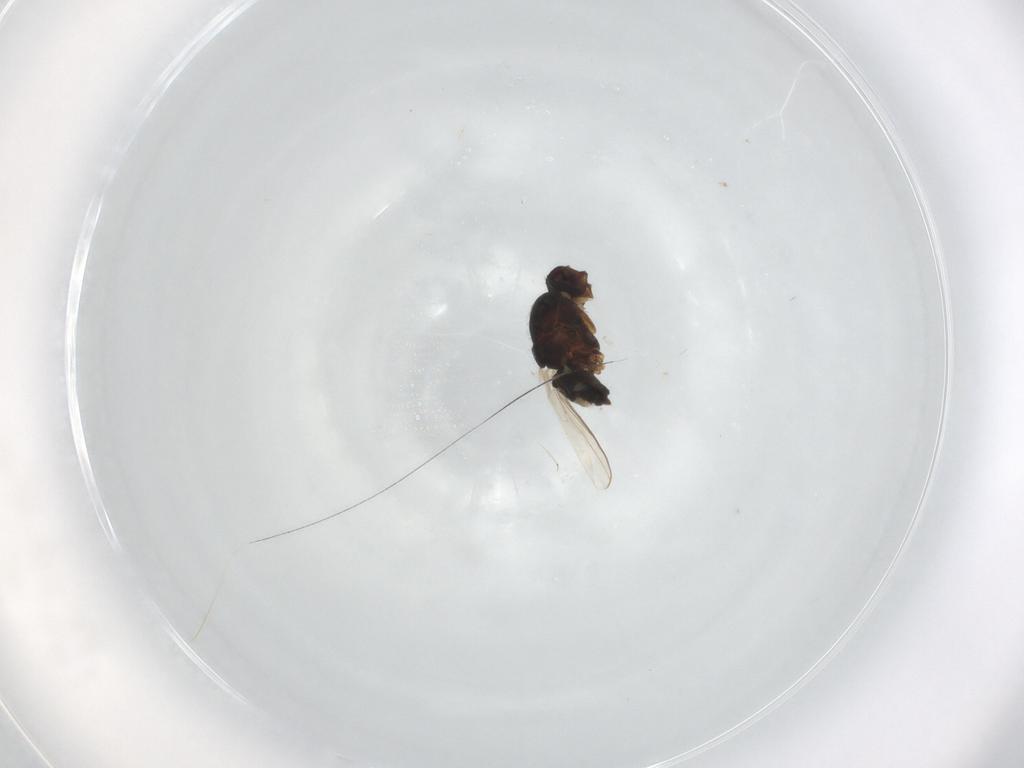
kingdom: Animalia
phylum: Arthropoda
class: Insecta
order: Diptera
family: Sphaeroceridae
